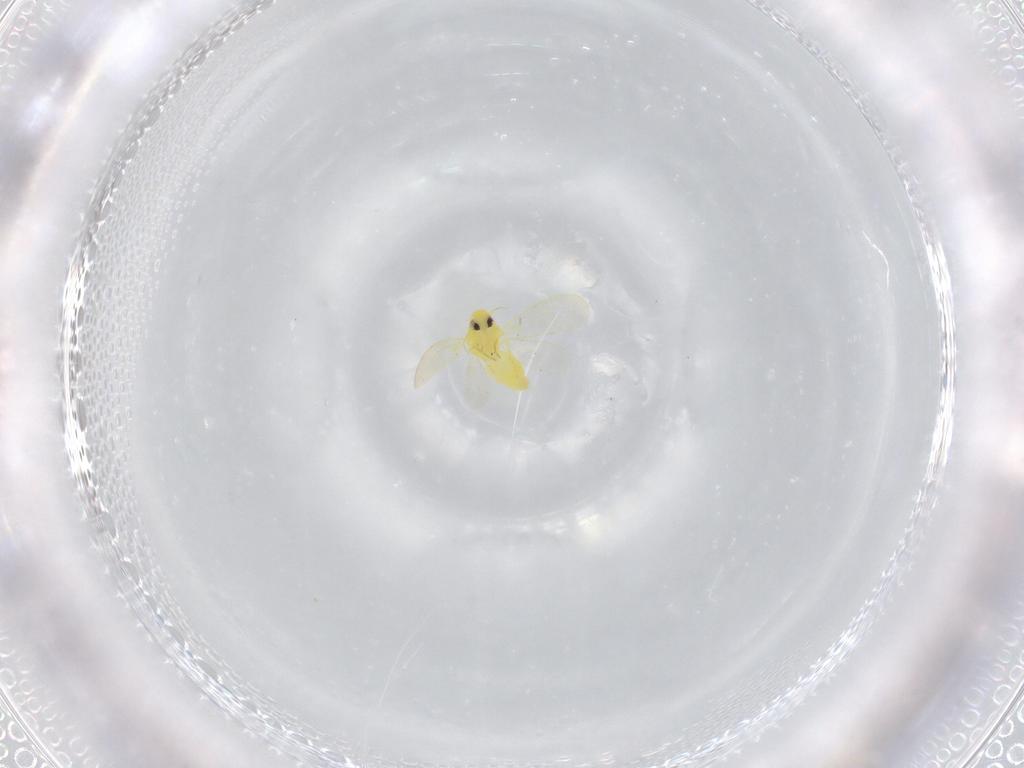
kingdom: Animalia
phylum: Arthropoda
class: Insecta
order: Hemiptera
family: Aleyrodidae
